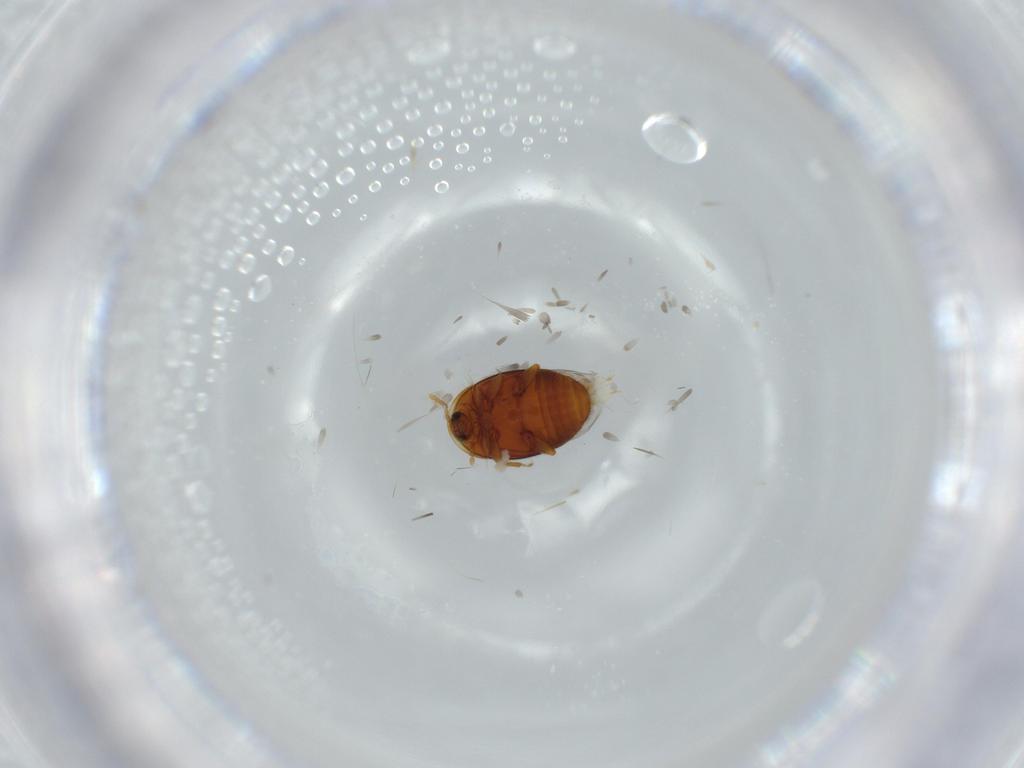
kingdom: Animalia
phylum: Arthropoda
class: Insecta
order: Coleoptera
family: Corylophidae
